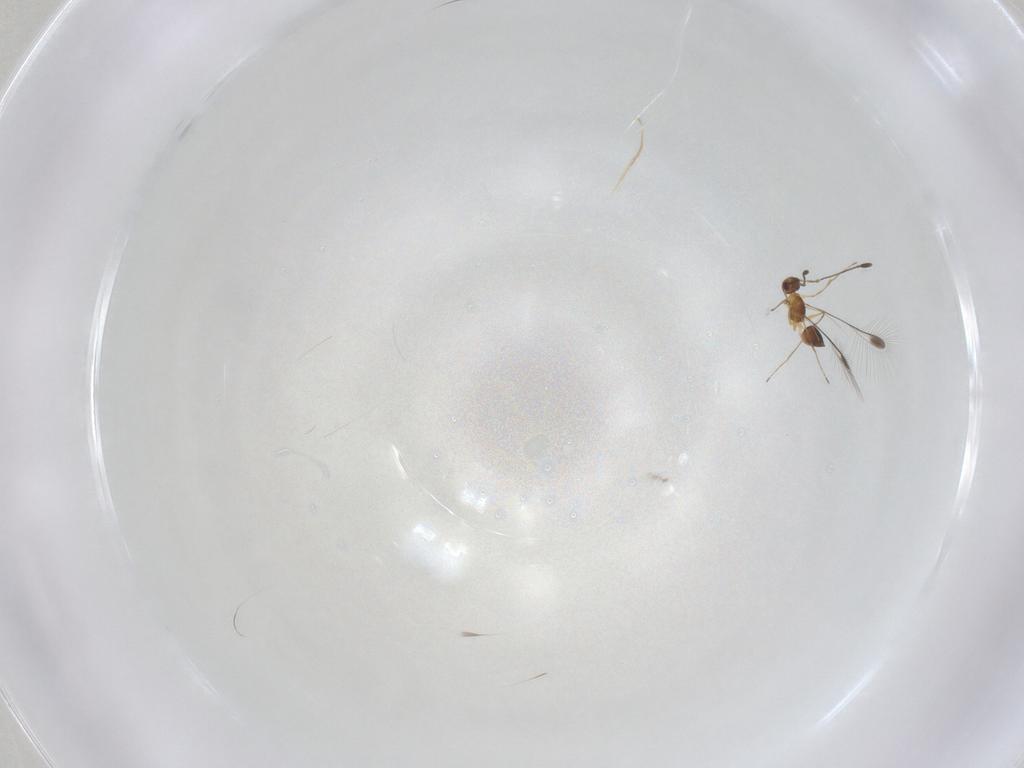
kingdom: Animalia
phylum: Arthropoda
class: Insecta
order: Hymenoptera
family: Mymaridae
